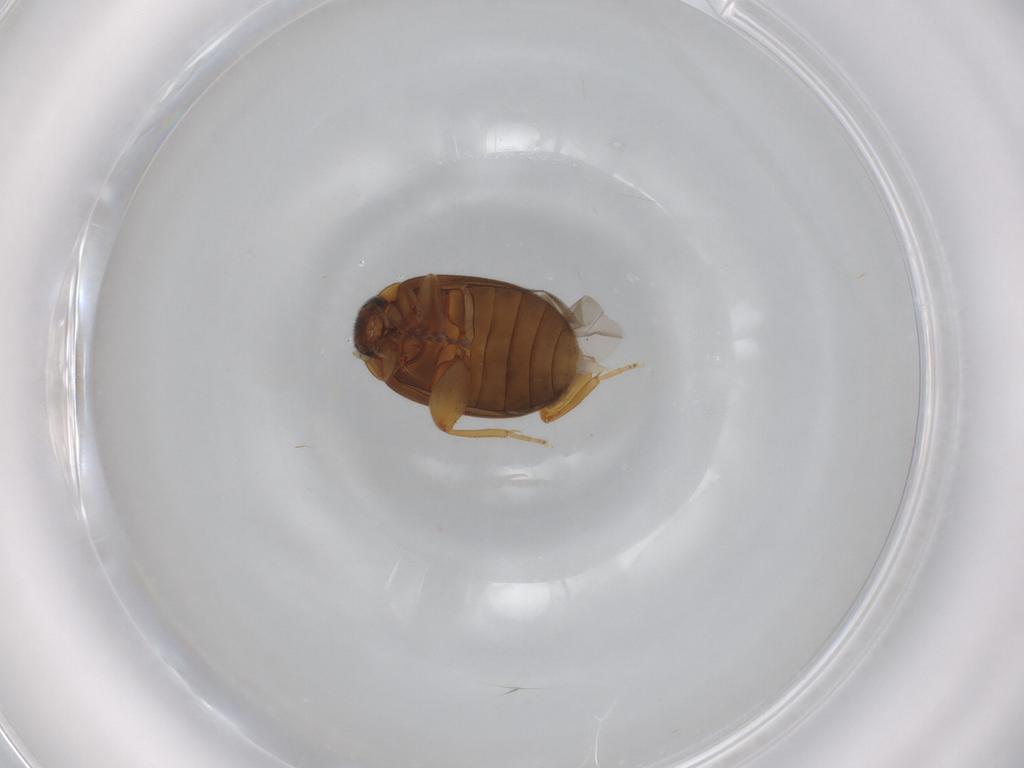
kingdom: Animalia
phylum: Arthropoda
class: Insecta
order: Coleoptera
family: Scirtidae
